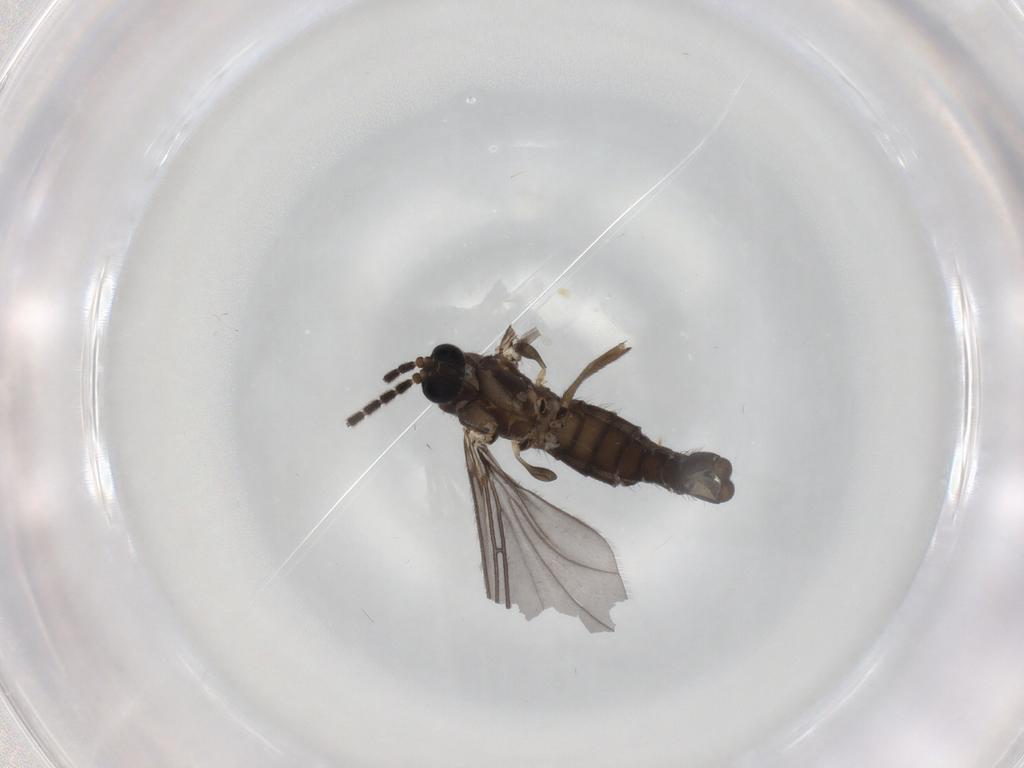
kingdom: Animalia
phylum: Arthropoda
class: Insecta
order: Diptera
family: Sciaridae
